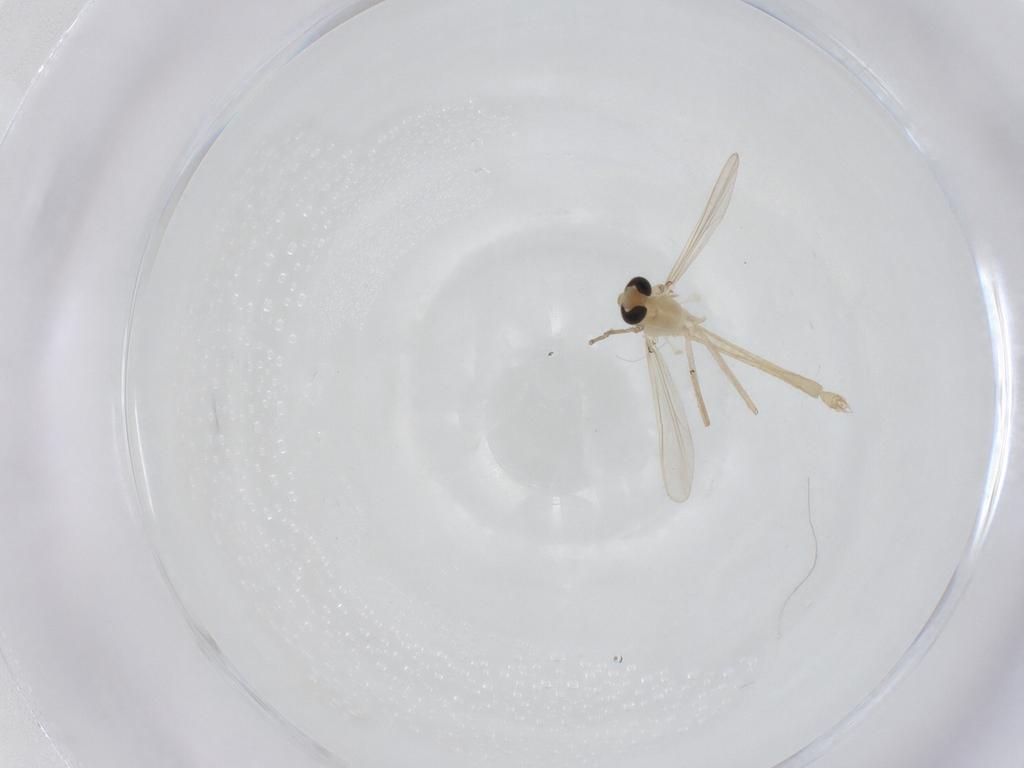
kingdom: Animalia
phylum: Arthropoda
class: Insecta
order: Diptera
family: Chironomidae
